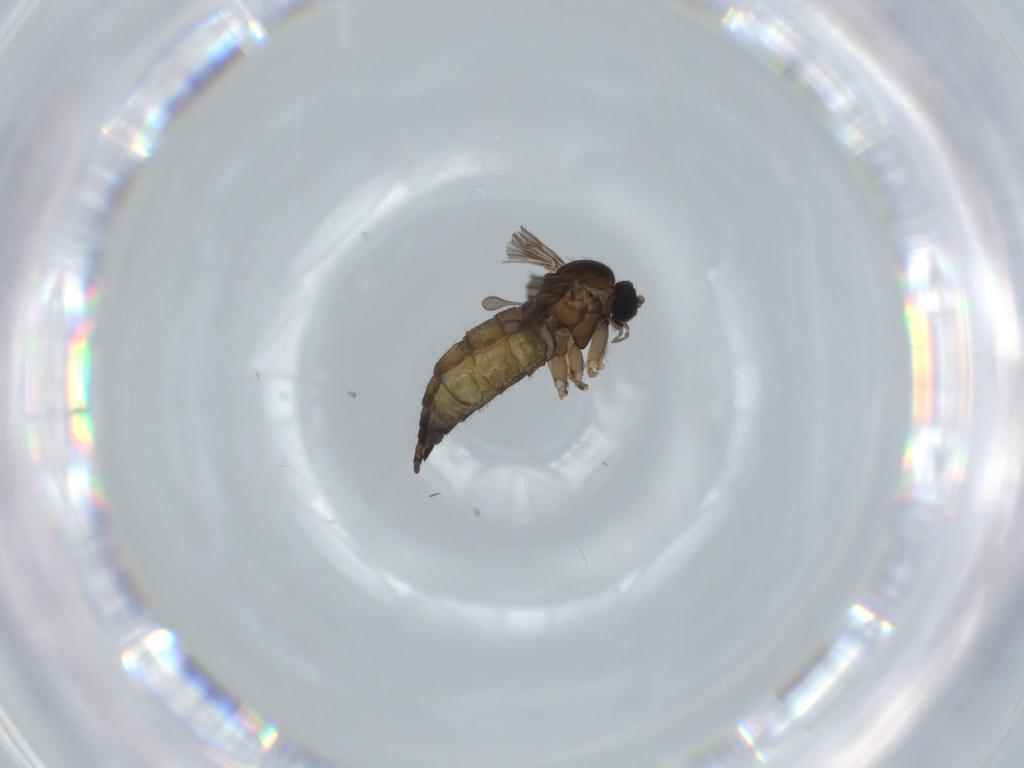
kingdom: Animalia
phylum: Arthropoda
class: Insecta
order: Diptera
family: Sciaridae
